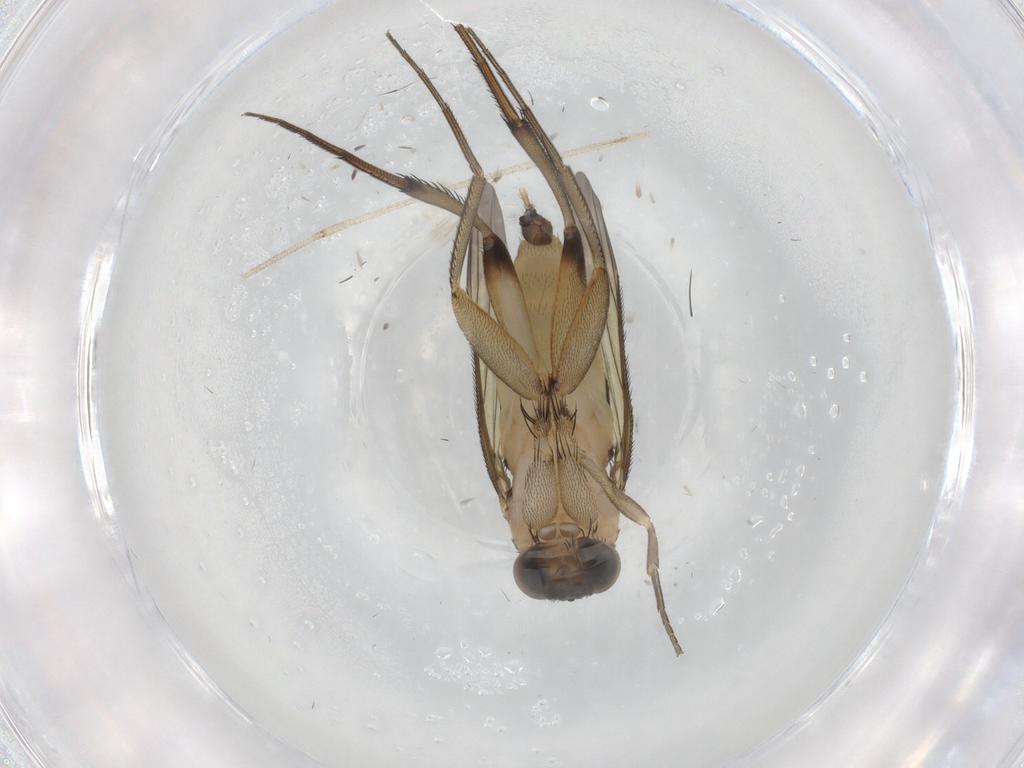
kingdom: Animalia
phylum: Arthropoda
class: Insecta
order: Diptera
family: Limoniidae
